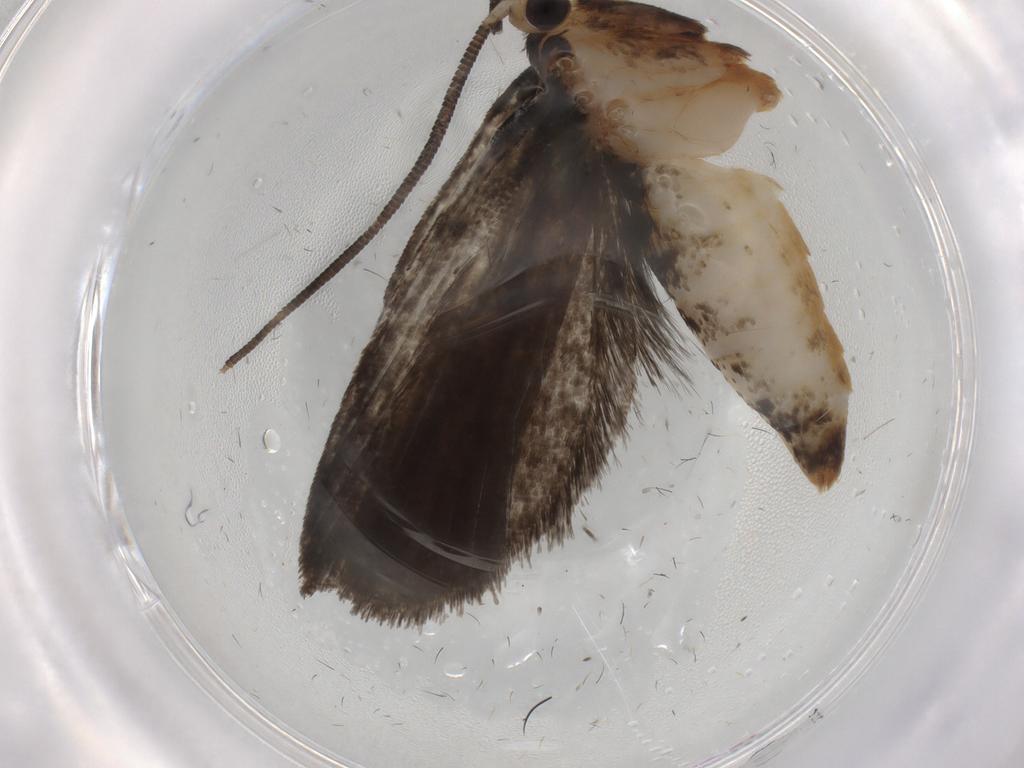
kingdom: Animalia
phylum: Arthropoda
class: Insecta
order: Lepidoptera
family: Tineidae
